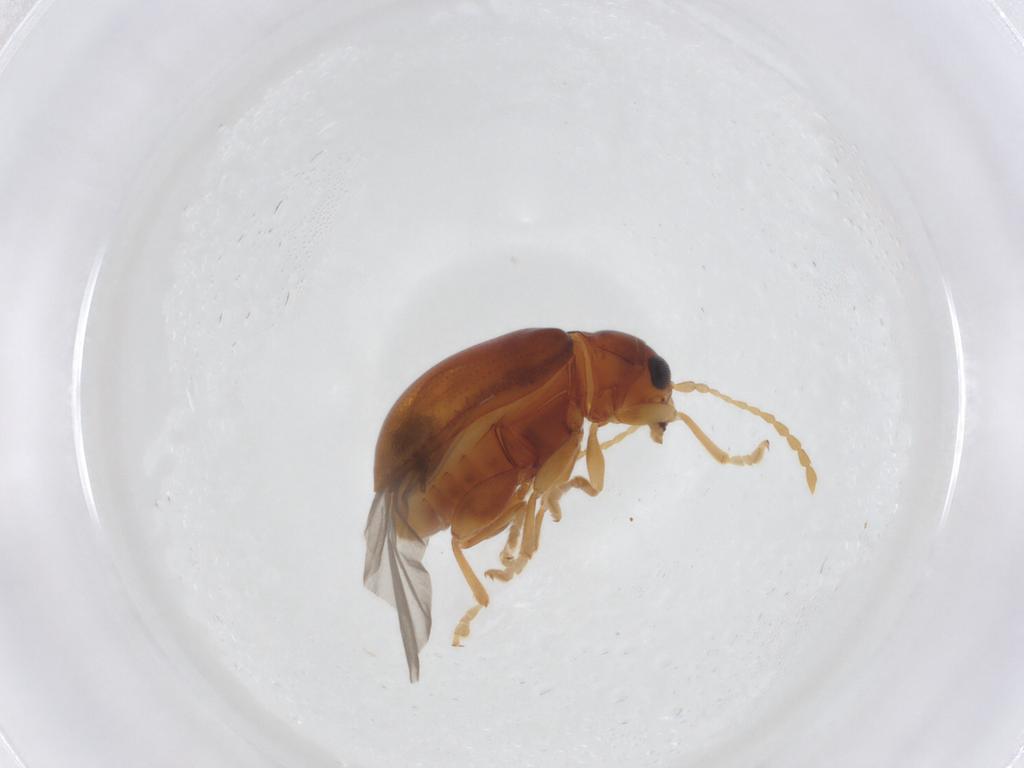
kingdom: Animalia
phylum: Arthropoda
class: Insecta
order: Coleoptera
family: Chrysomelidae
